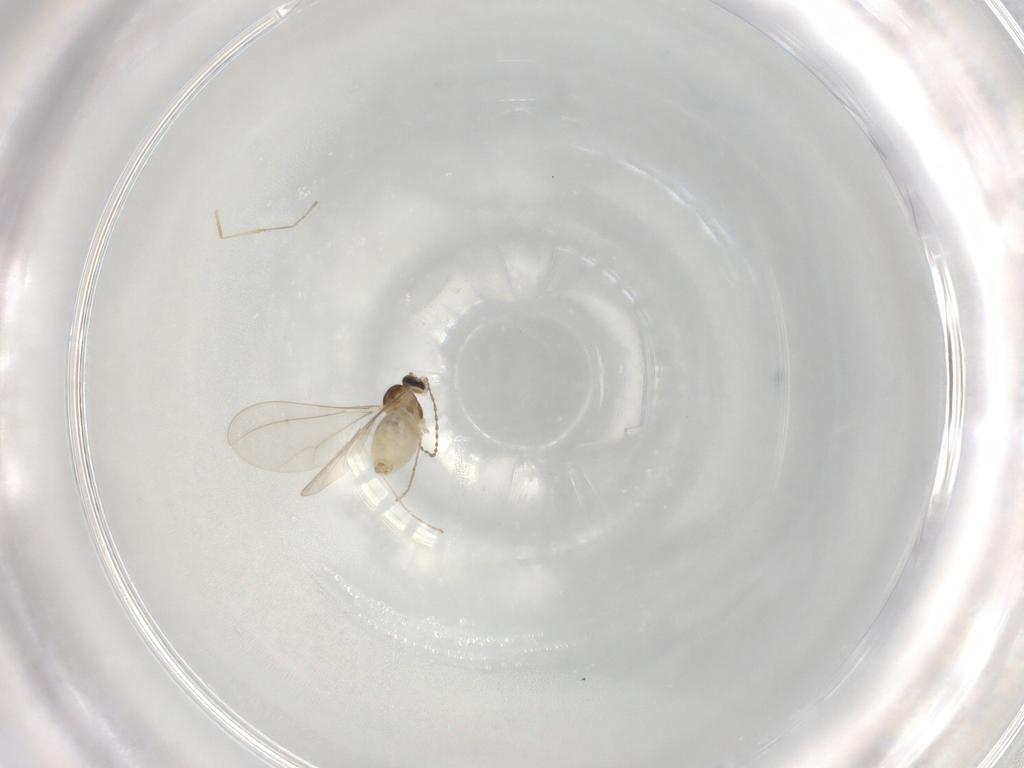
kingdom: Animalia
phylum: Arthropoda
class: Insecta
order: Diptera
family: Cecidomyiidae
